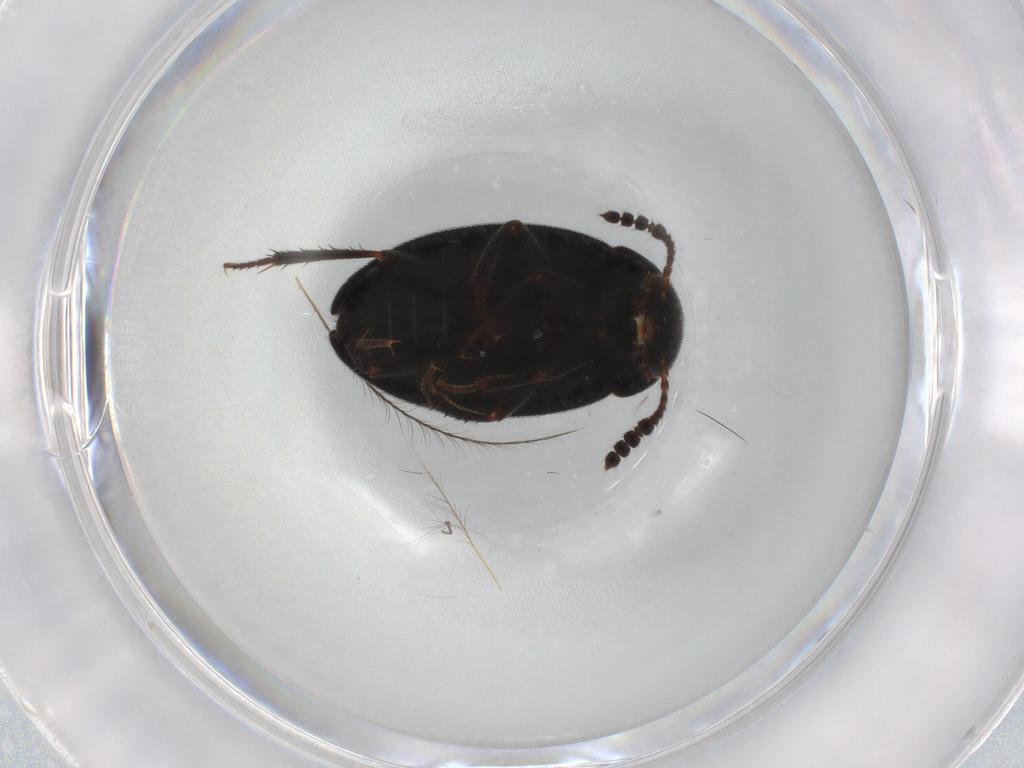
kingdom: Animalia
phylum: Arthropoda
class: Insecta
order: Coleoptera
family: Leiodidae
